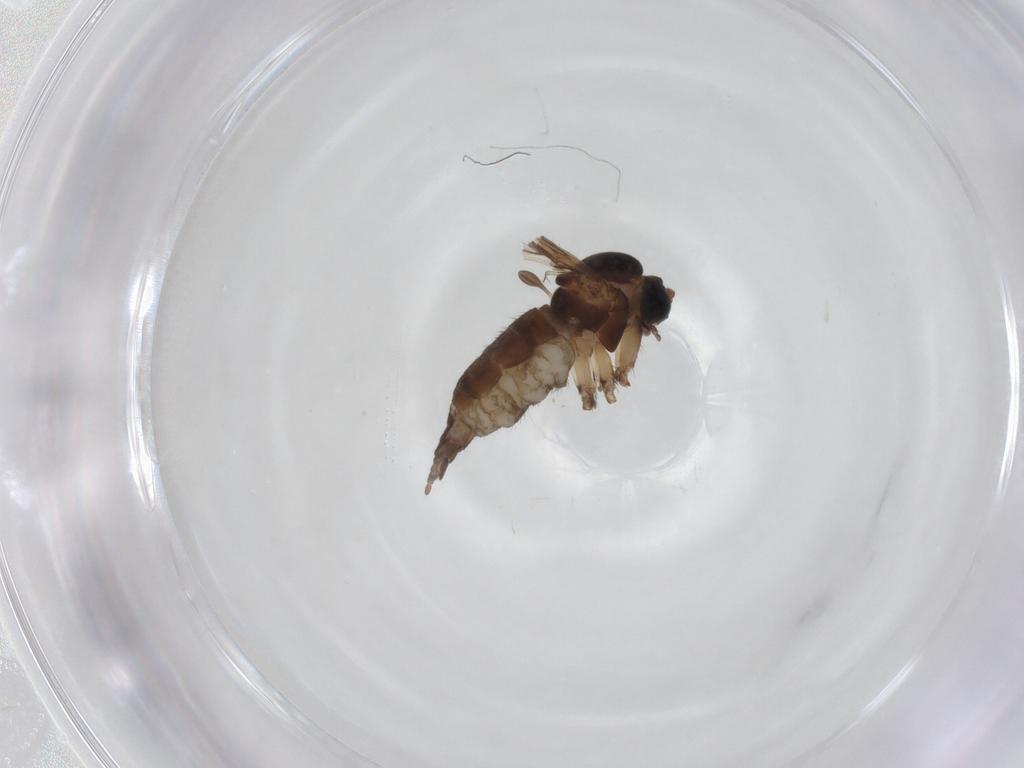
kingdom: Animalia
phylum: Arthropoda
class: Insecta
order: Diptera
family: Sciaridae
